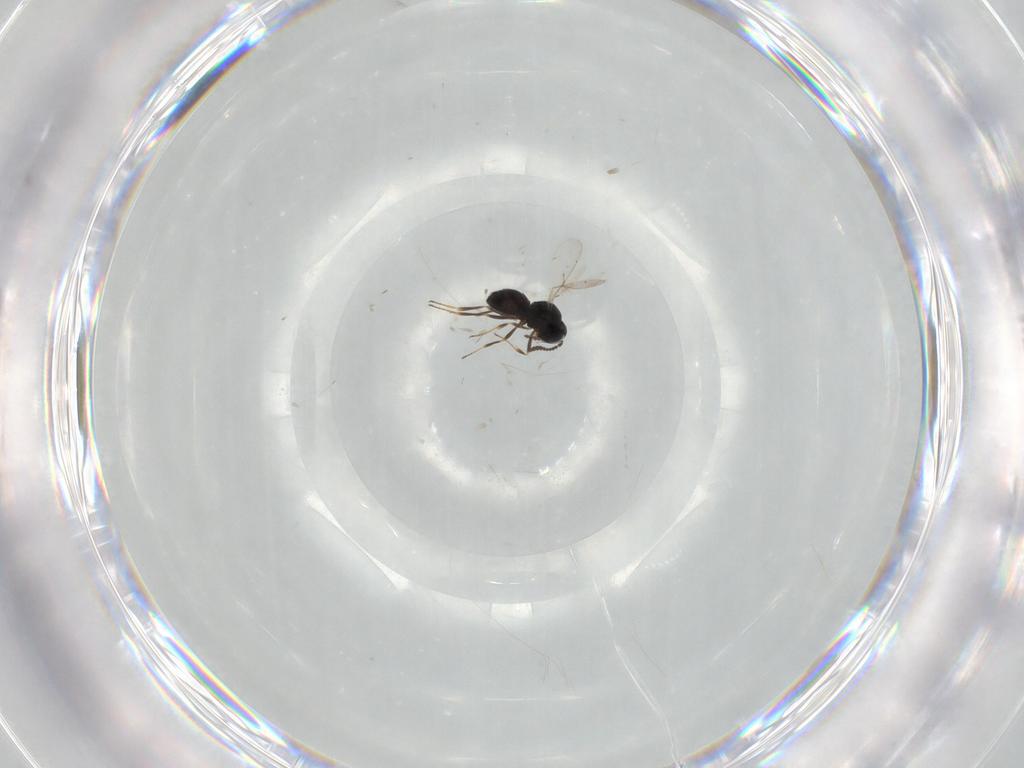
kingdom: Animalia
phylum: Arthropoda
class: Insecta
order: Hymenoptera
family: Scelionidae
